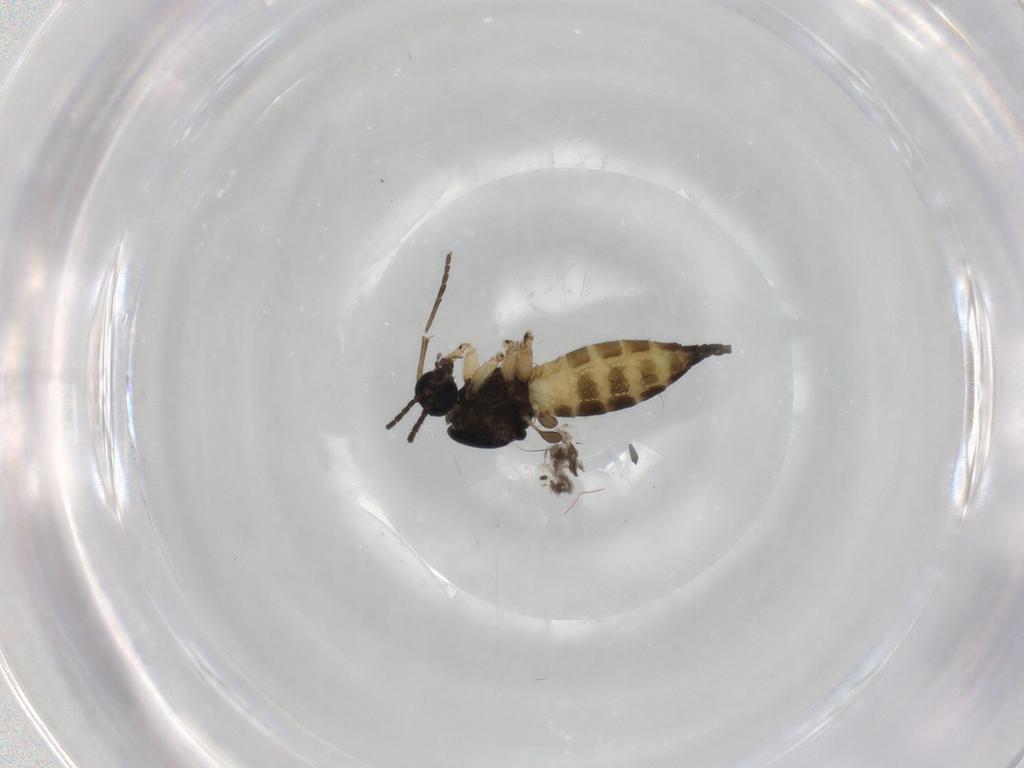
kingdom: Animalia
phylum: Arthropoda
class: Insecta
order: Diptera
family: Sciaridae
